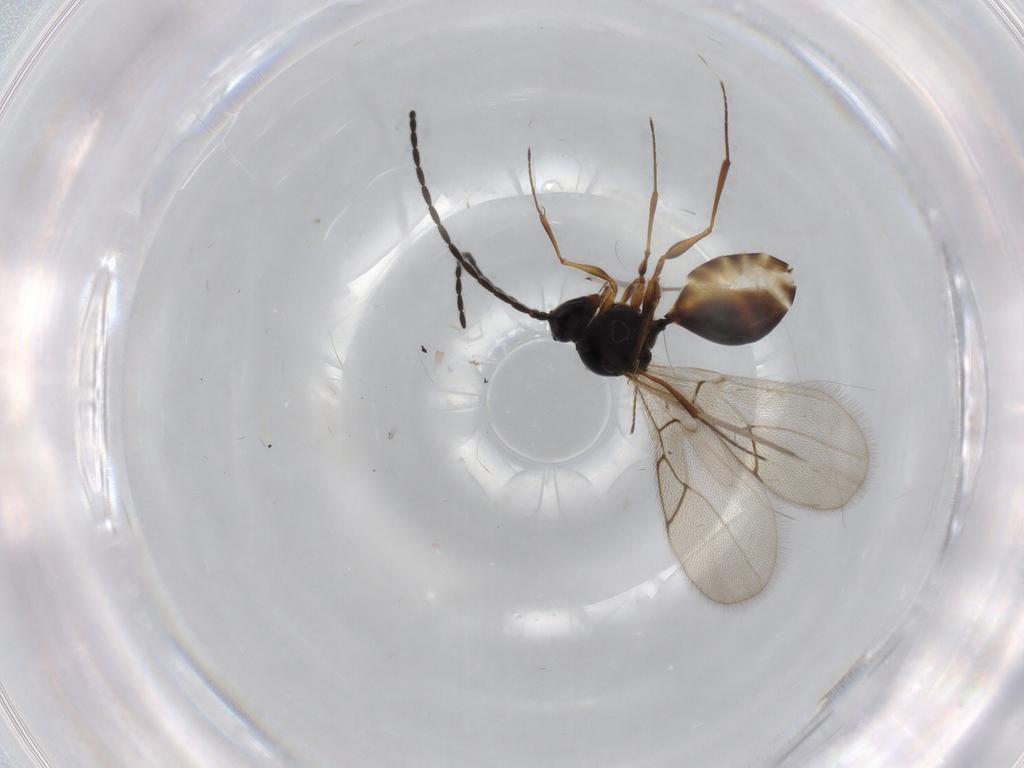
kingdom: Animalia
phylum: Arthropoda
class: Insecta
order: Hymenoptera
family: Figitidae
